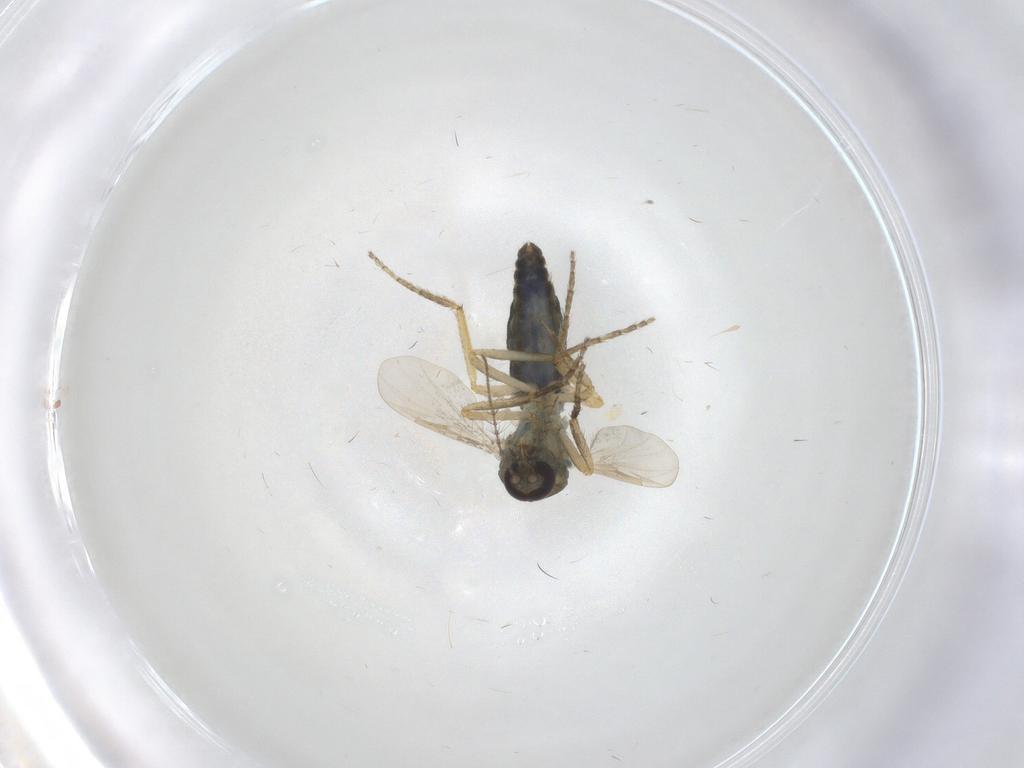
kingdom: Animalia
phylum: Arthropoda
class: Insecta
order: Diptera
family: Ceratopogonidae
